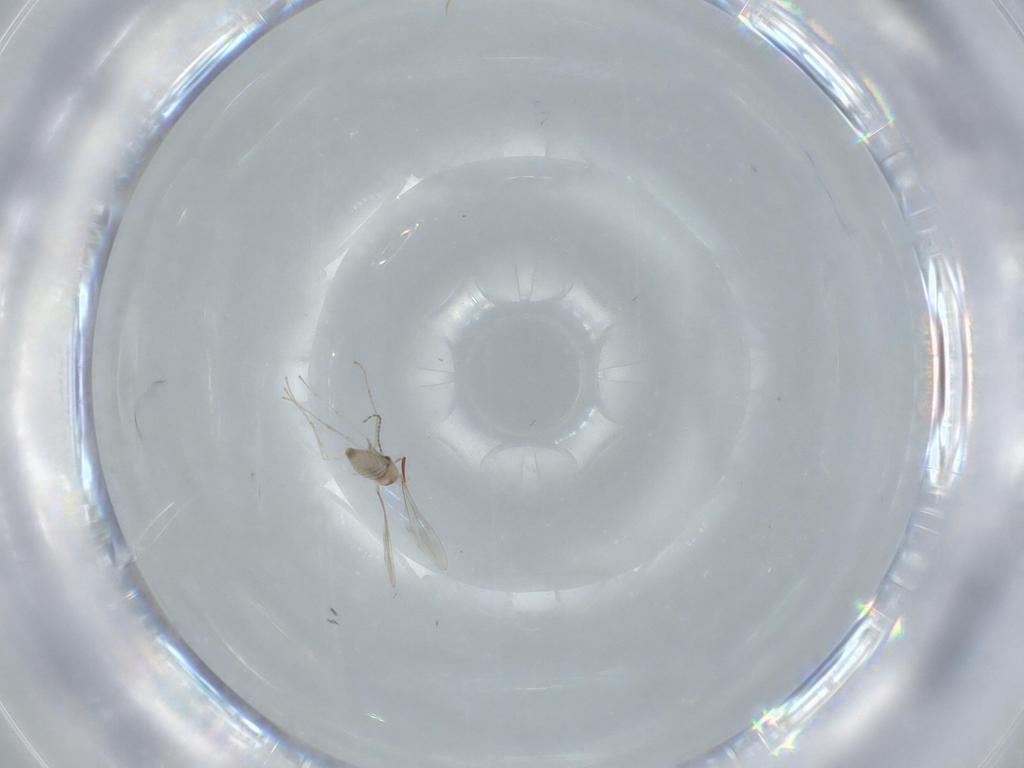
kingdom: Animalia
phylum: Arthropoda
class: Insecta
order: Diptera
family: Cecidomyiidae
